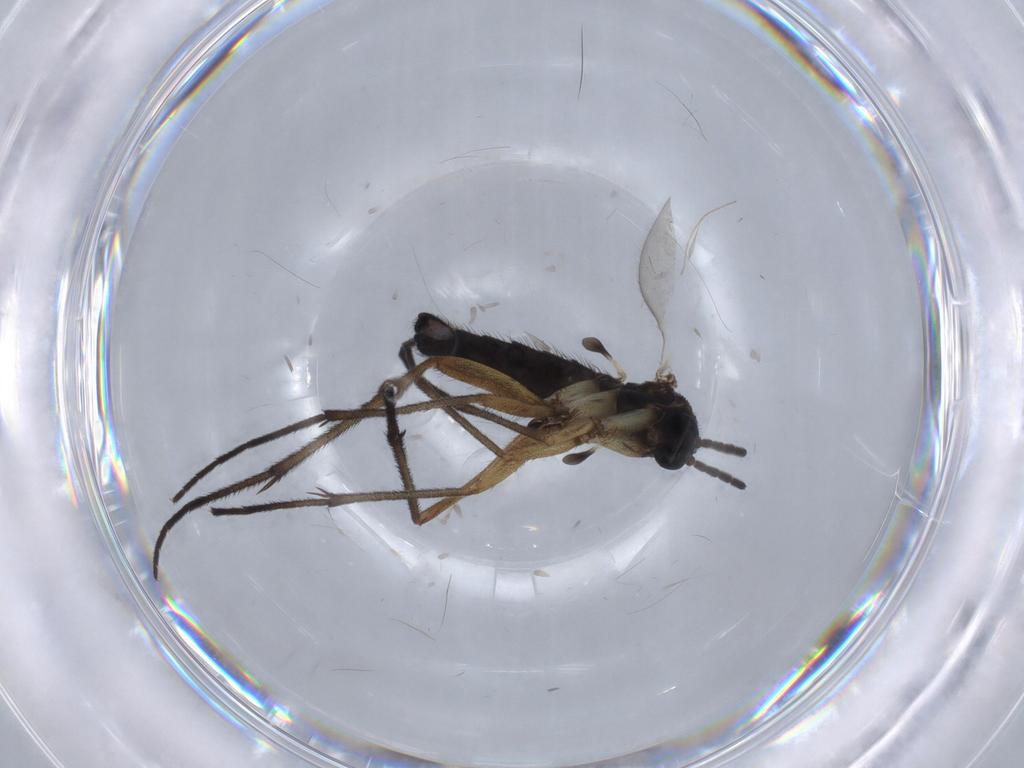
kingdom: Animalia
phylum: Arthropoda
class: Insecta
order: Diptera
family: Sciaridae
